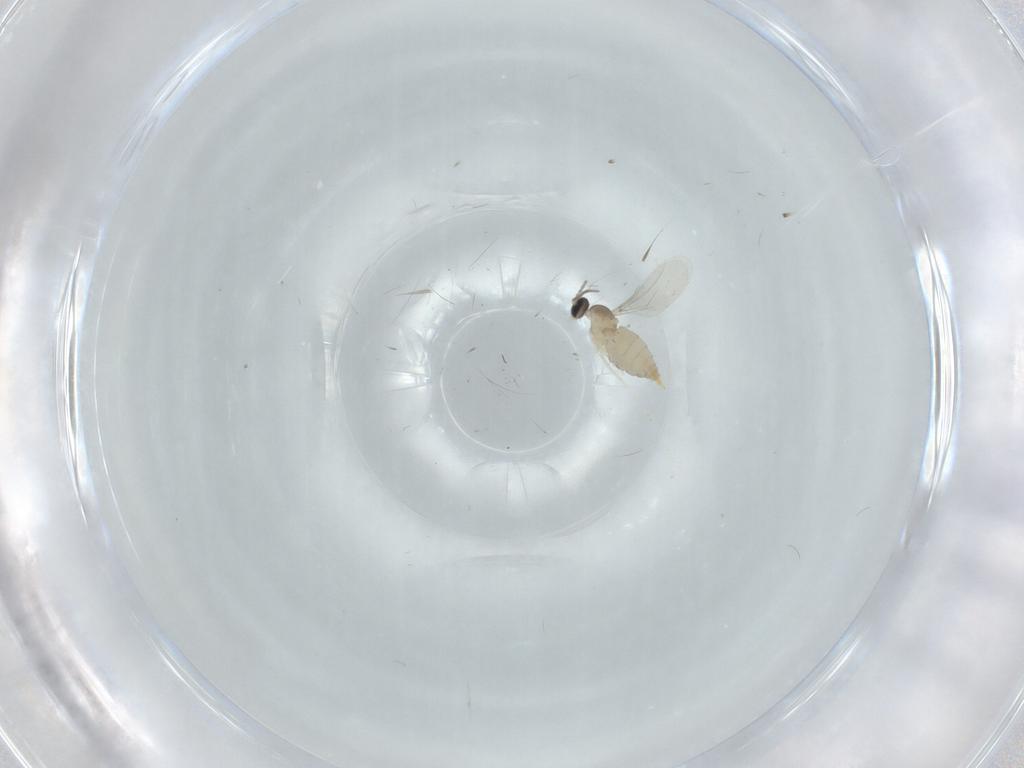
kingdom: Animalia
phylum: Arthropoda
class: Insecta
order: Diptera
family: Cecidomyiidae
